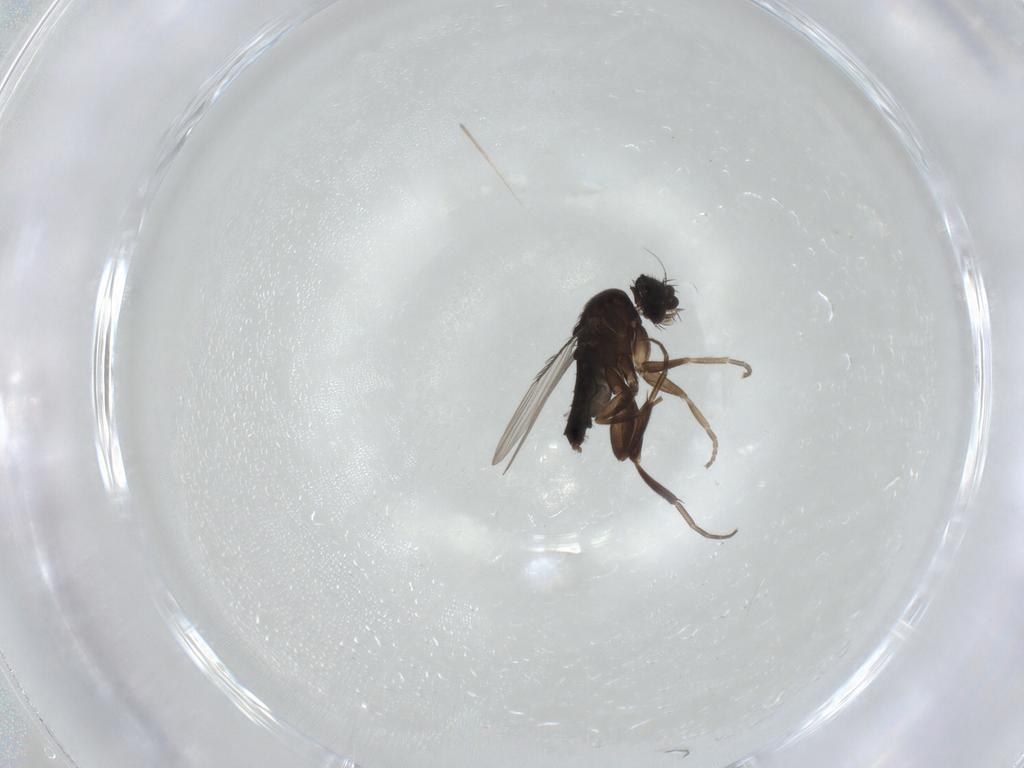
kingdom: Animalia
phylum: Arthropoda
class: Insecta
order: Diptera
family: Phoridae
